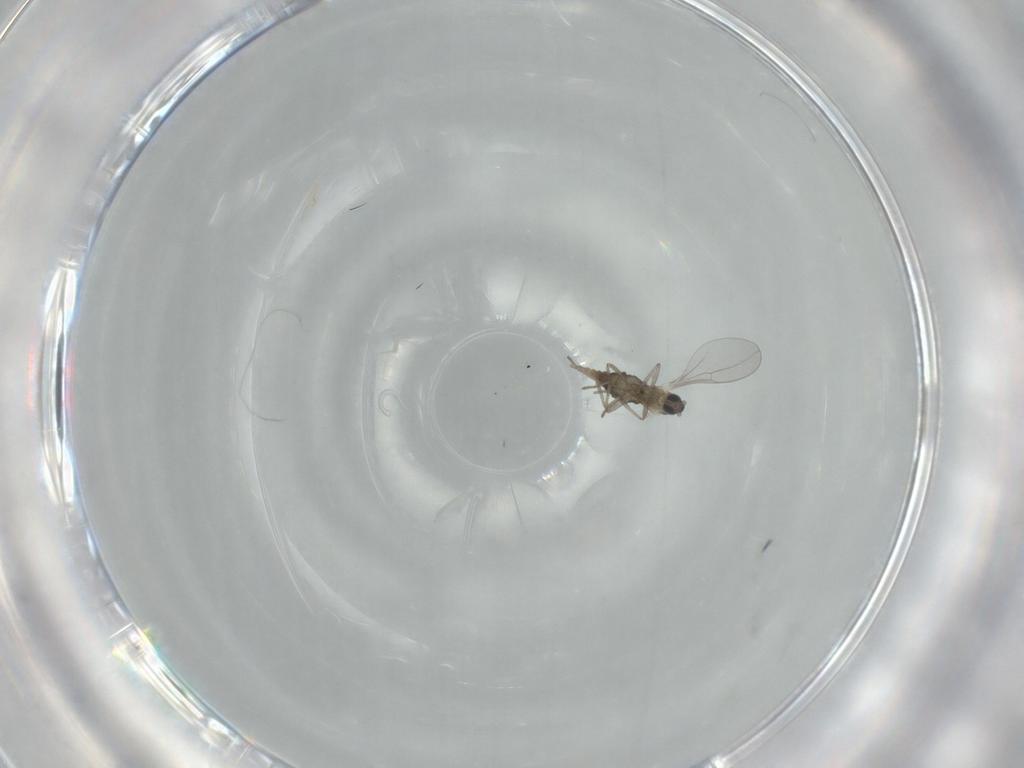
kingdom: Animalia
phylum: Arthropoda
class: Insecta
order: Diptera
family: Cecidomyiidae
